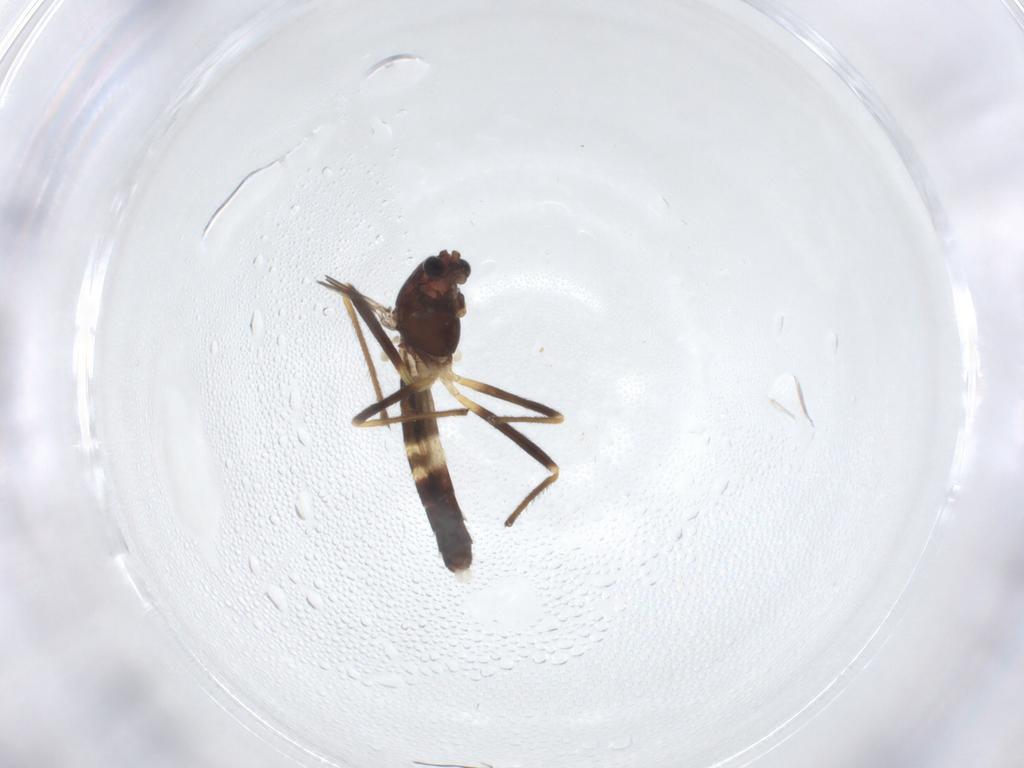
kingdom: Animalia
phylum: Arthropoda
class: Insecta
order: Diptera
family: Chironomidae
